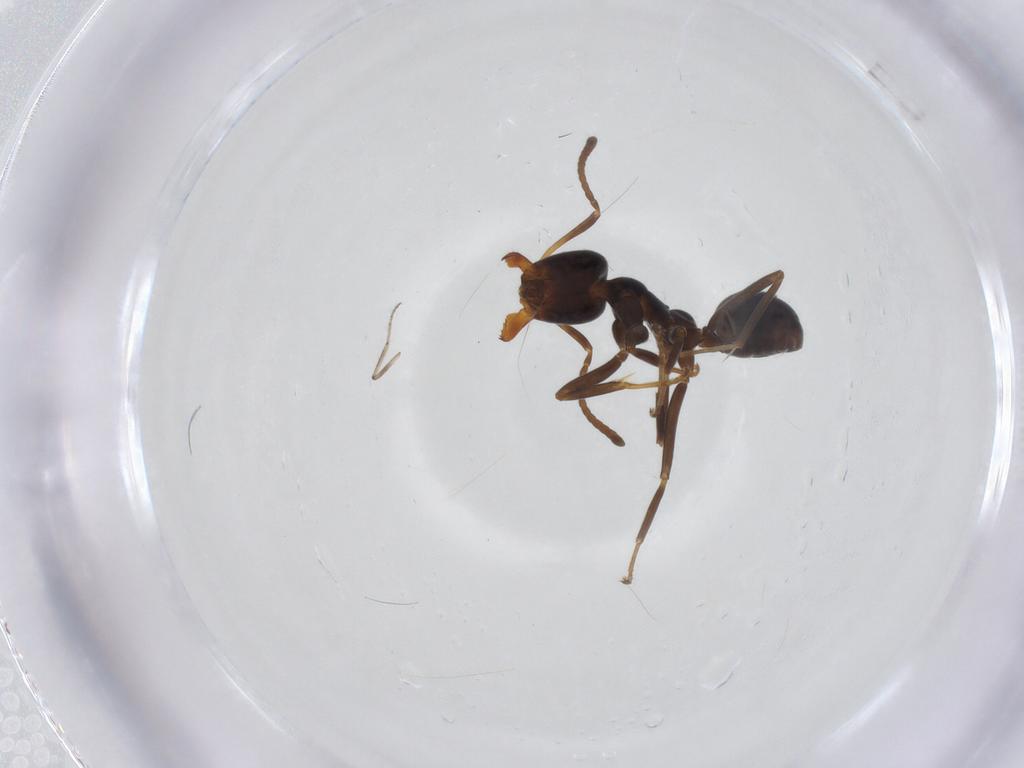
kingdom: Animalia
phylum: Arthropoda
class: Insecta
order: Hymenoptera
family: Formicidae
